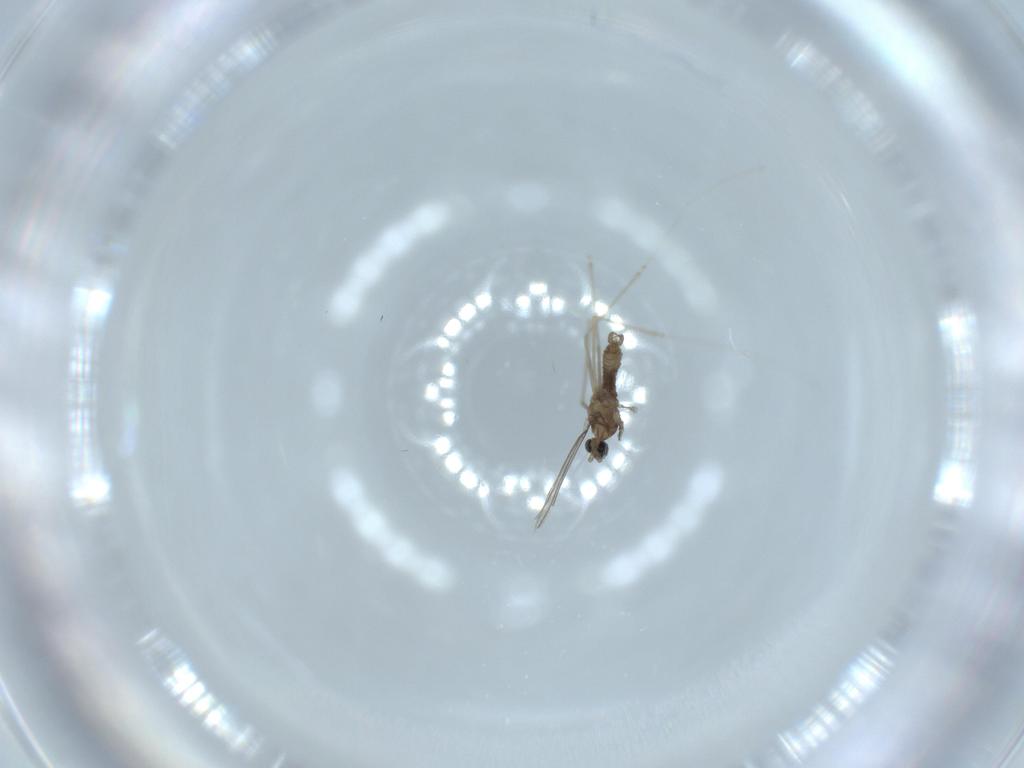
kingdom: Animalia
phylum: Arthropoda
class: Insecta
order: Diptera
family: Cecidomyiidae
